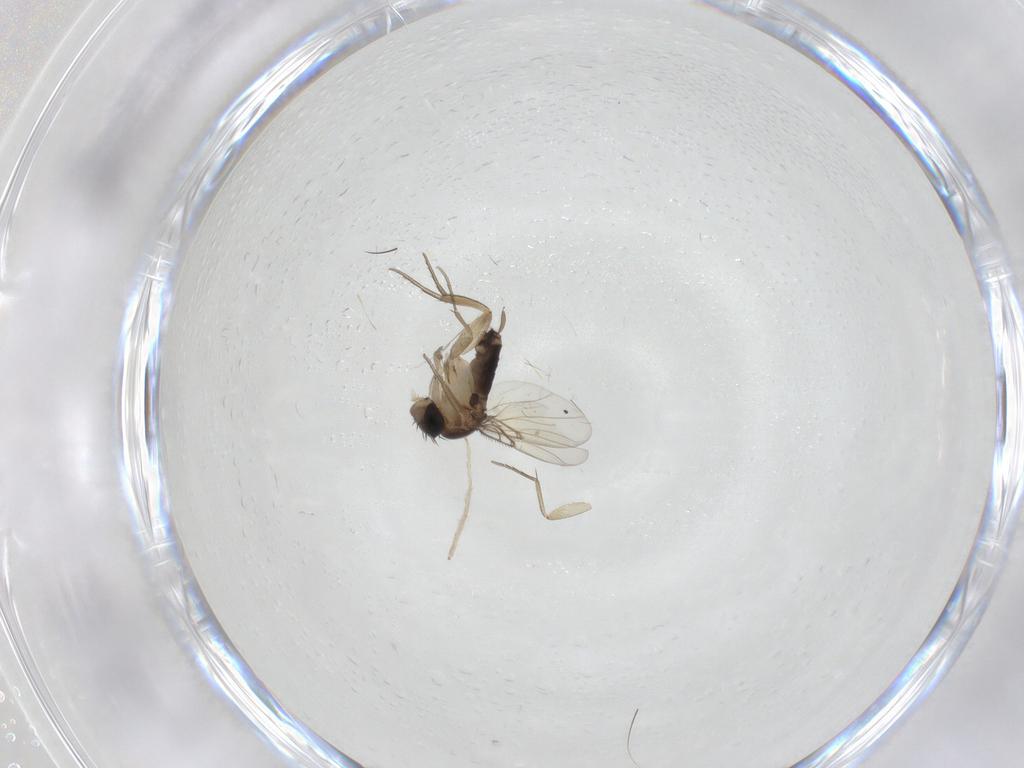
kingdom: Animalia
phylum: Arthropoda
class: Insecta
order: Diptera
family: Chironomidae
